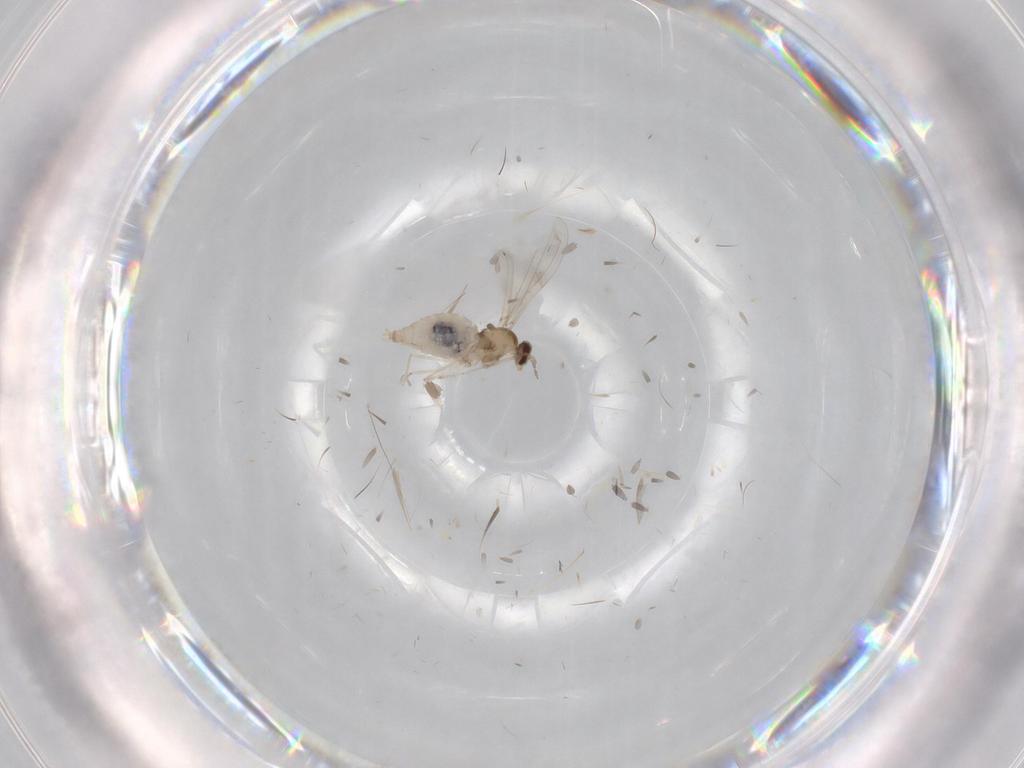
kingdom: Animalia
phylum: Arthropoda
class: Insecta
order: Diptera
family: Cecidomyiidae
